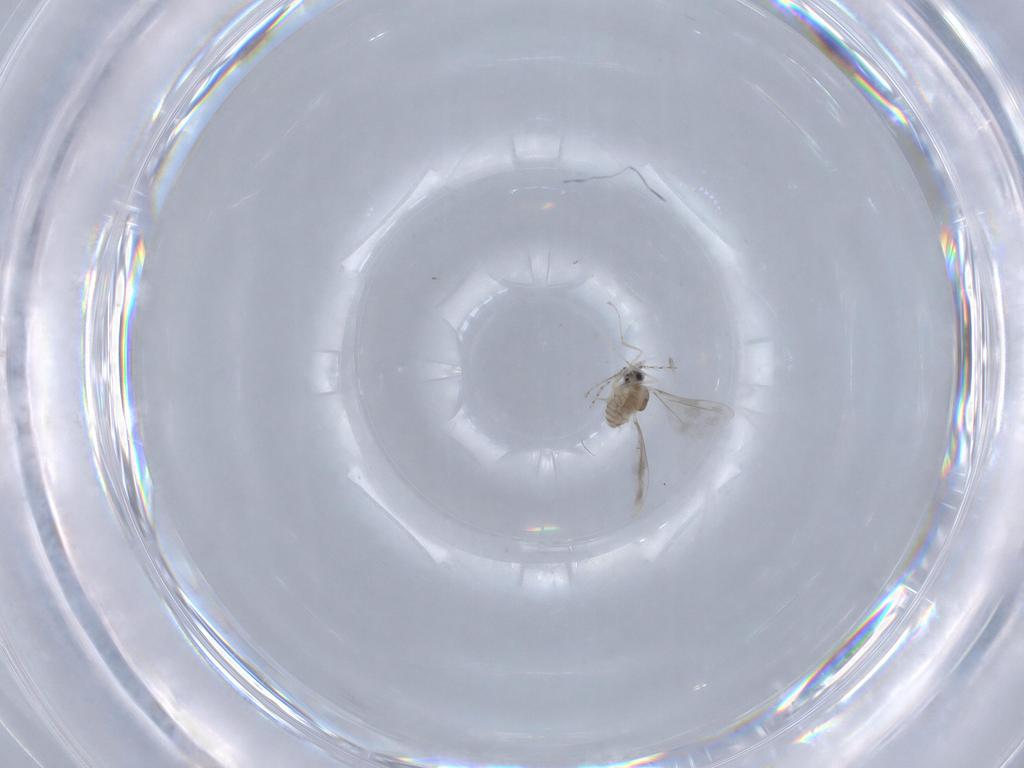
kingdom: Animalia
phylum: Arthropoda
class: Insecta
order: Diptera
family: Cecidomyiidae
